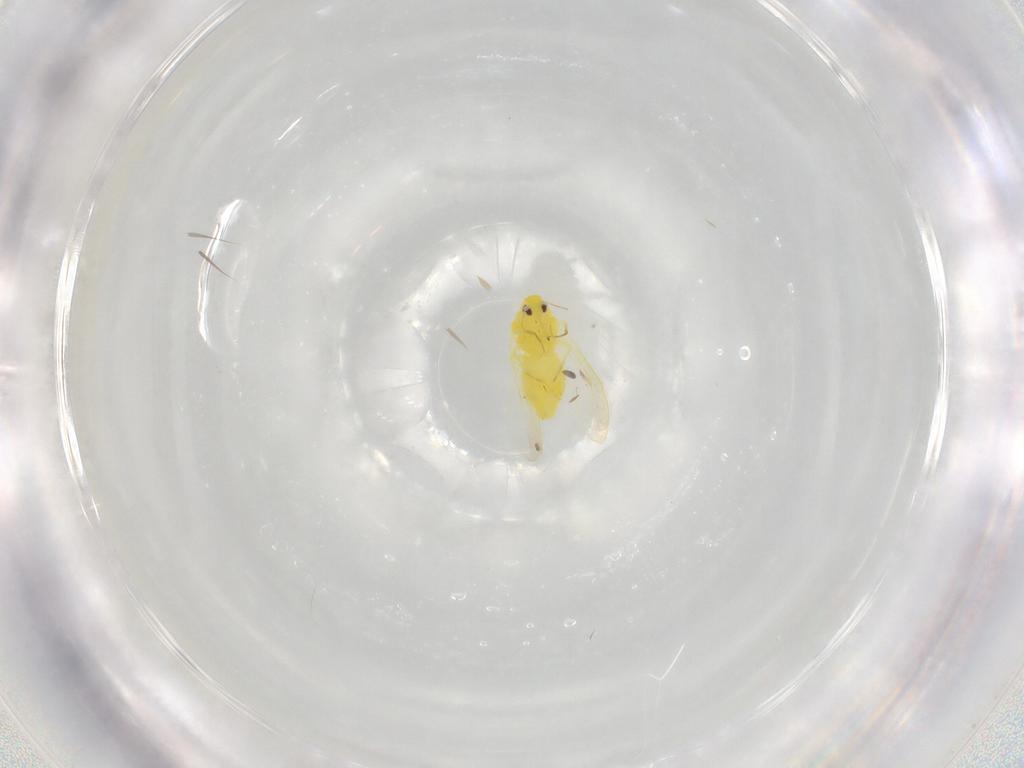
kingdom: Animalia
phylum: Arthropoda
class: Insecta
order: Hemiptera
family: Aleyrodidae
